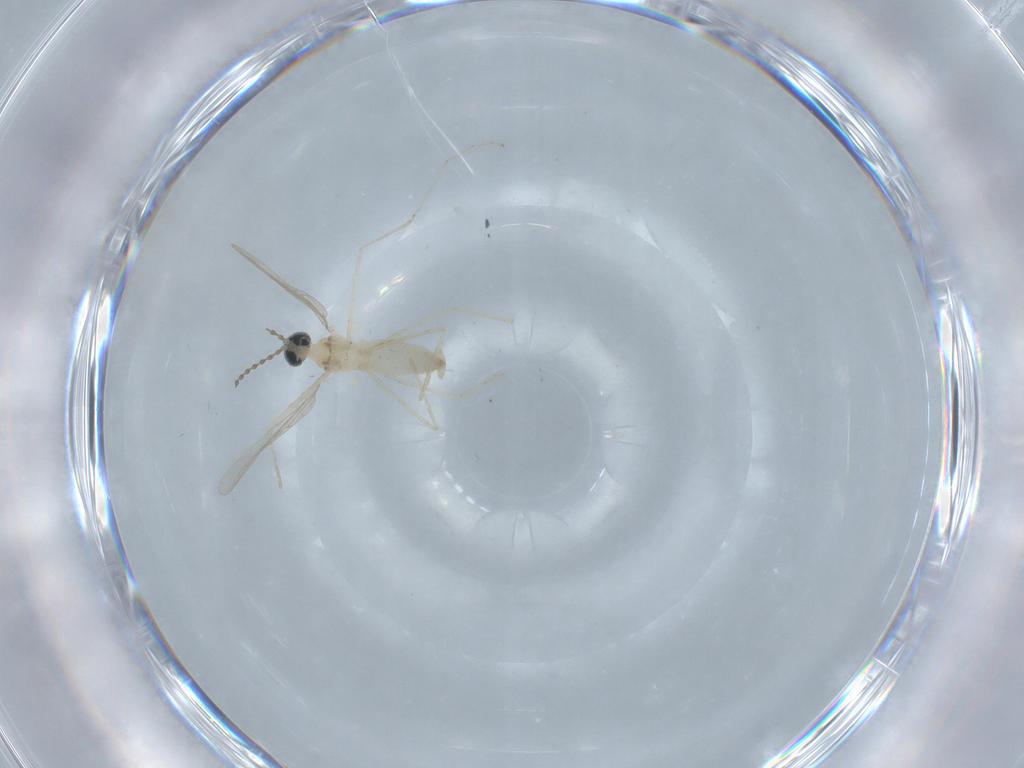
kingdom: Animalia
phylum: Arthropoda
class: Insecta
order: Diptera
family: Cecidomyiidae
